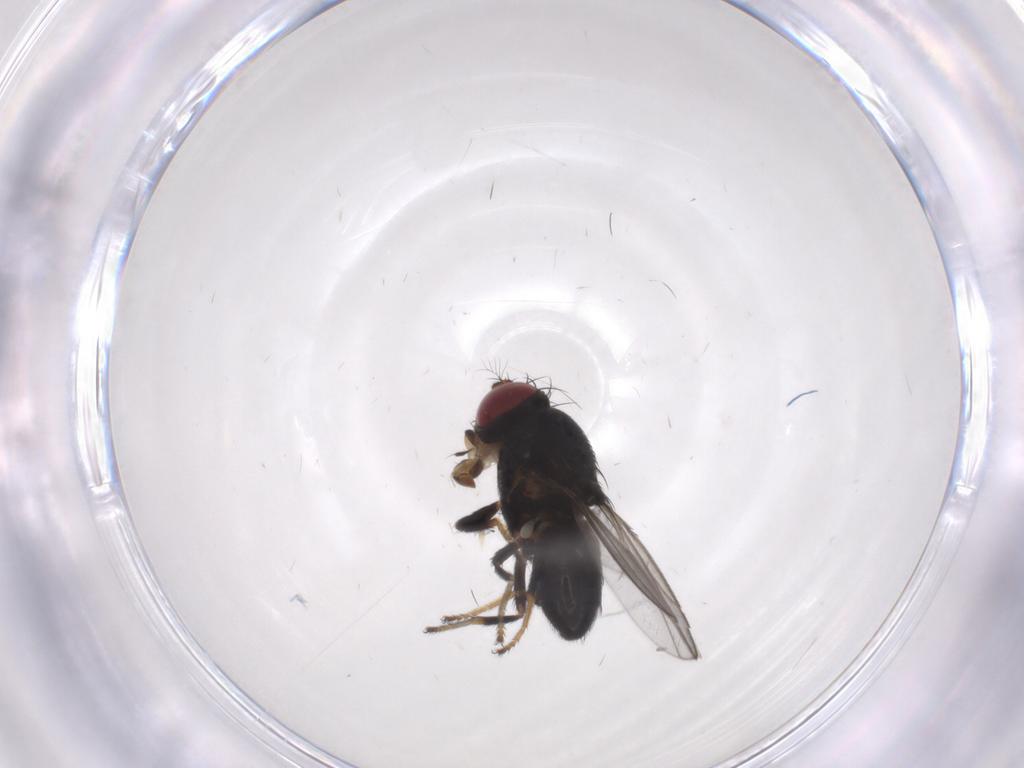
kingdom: Animalia
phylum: Arthropoda
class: Insecta
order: Diptera
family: Ephydridae
